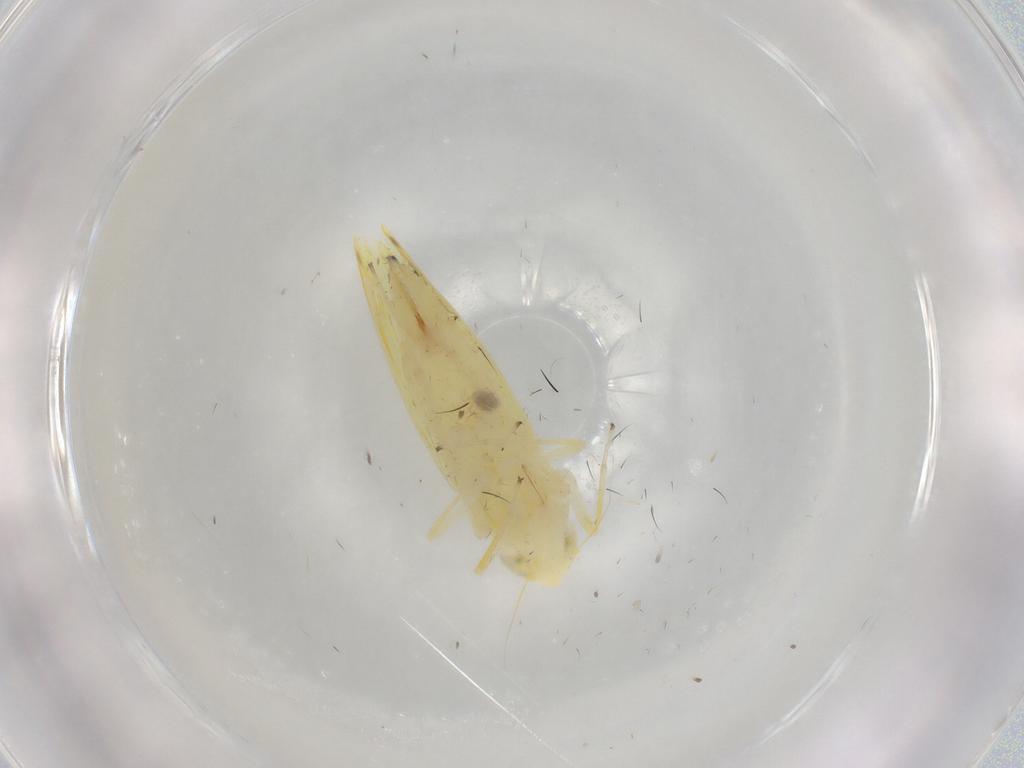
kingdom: Animalia
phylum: Arthropoda
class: Insecta
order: Hemiptera
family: Cicadellidae
